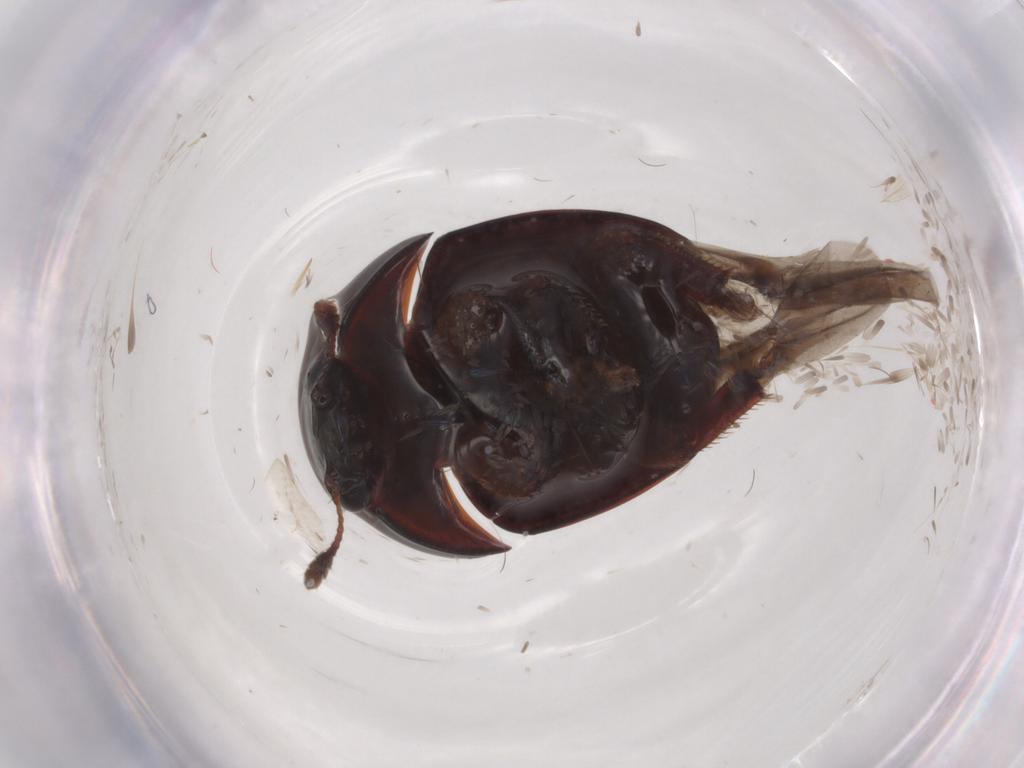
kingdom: Animalia
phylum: Arthropoda
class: Insecta
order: Coleoptera
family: Nitidulidae
